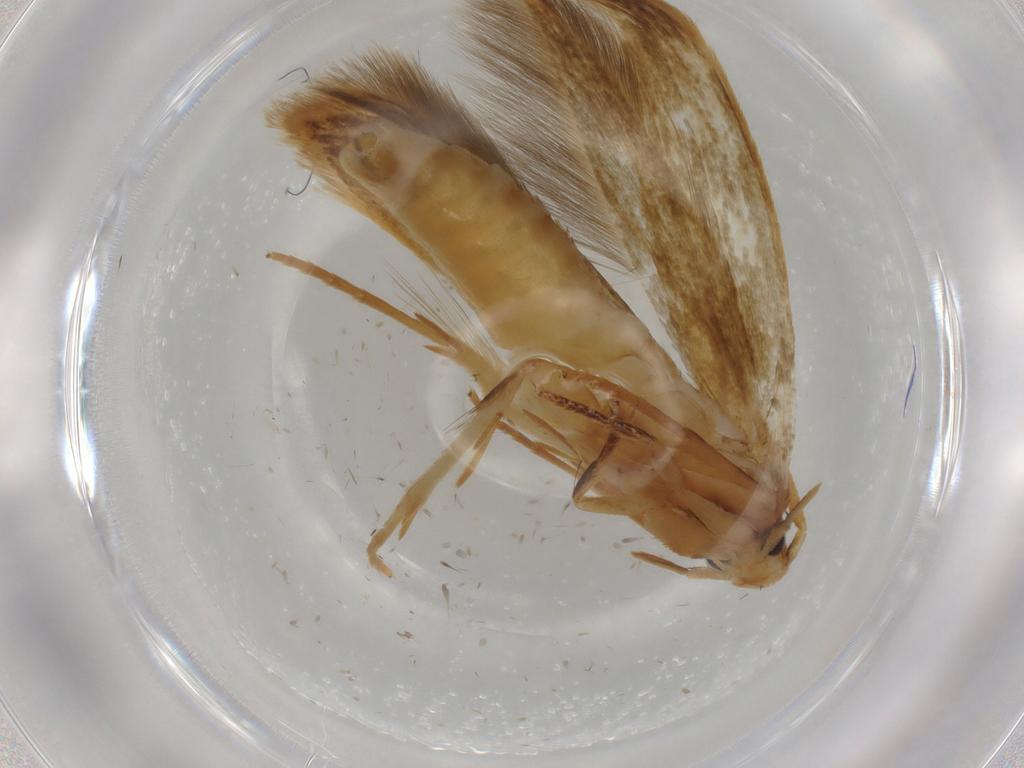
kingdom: Animalia
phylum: Arthropoda
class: Insecta
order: Lepidoptera
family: Tineidae
